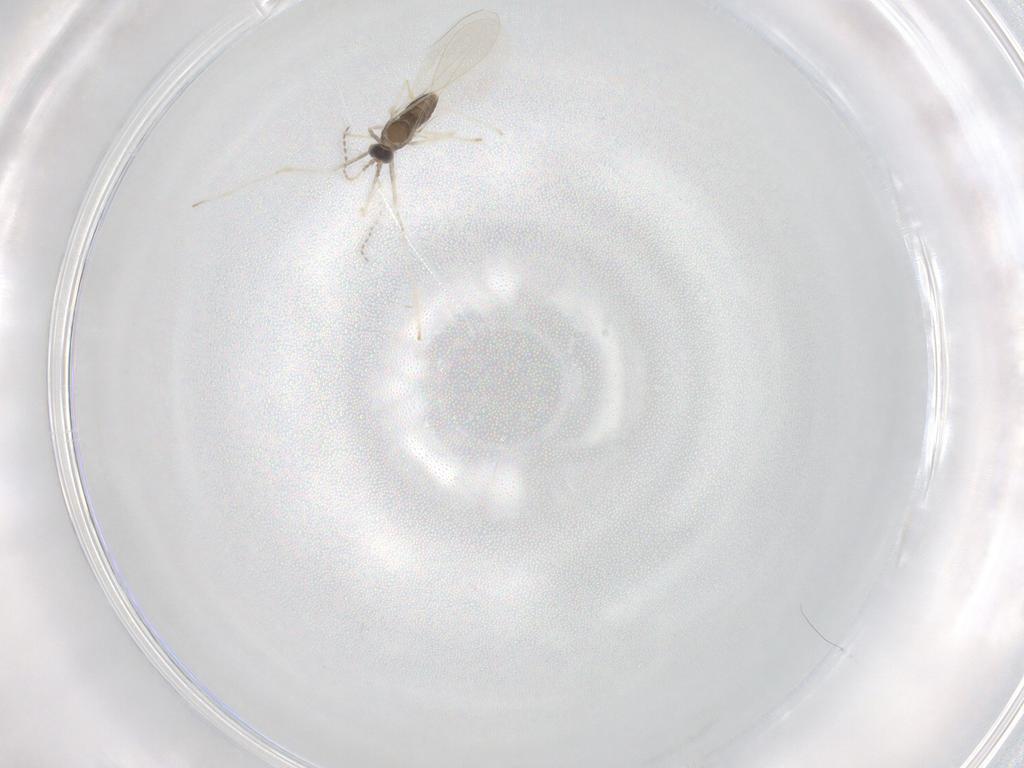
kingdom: Animalia
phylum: Arthropoda
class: Insecta
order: Diptera
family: Cecidomyiidae
